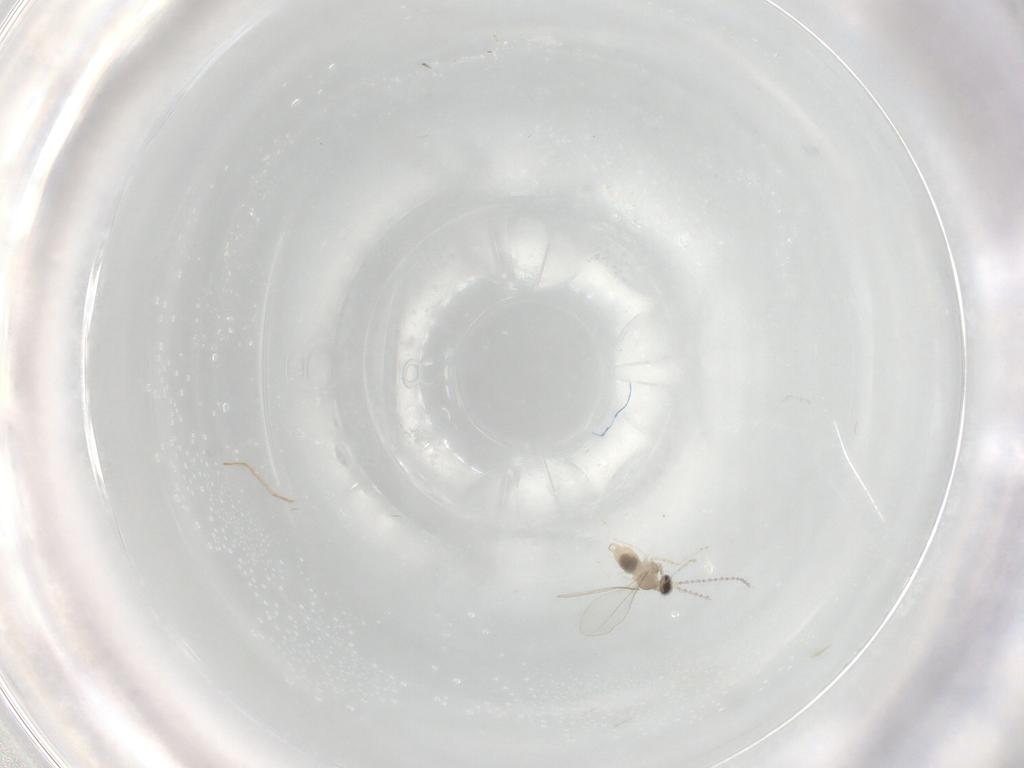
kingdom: Animalia
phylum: Arthropoda
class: Insecta
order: Diptera
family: Cecidomyiidae
